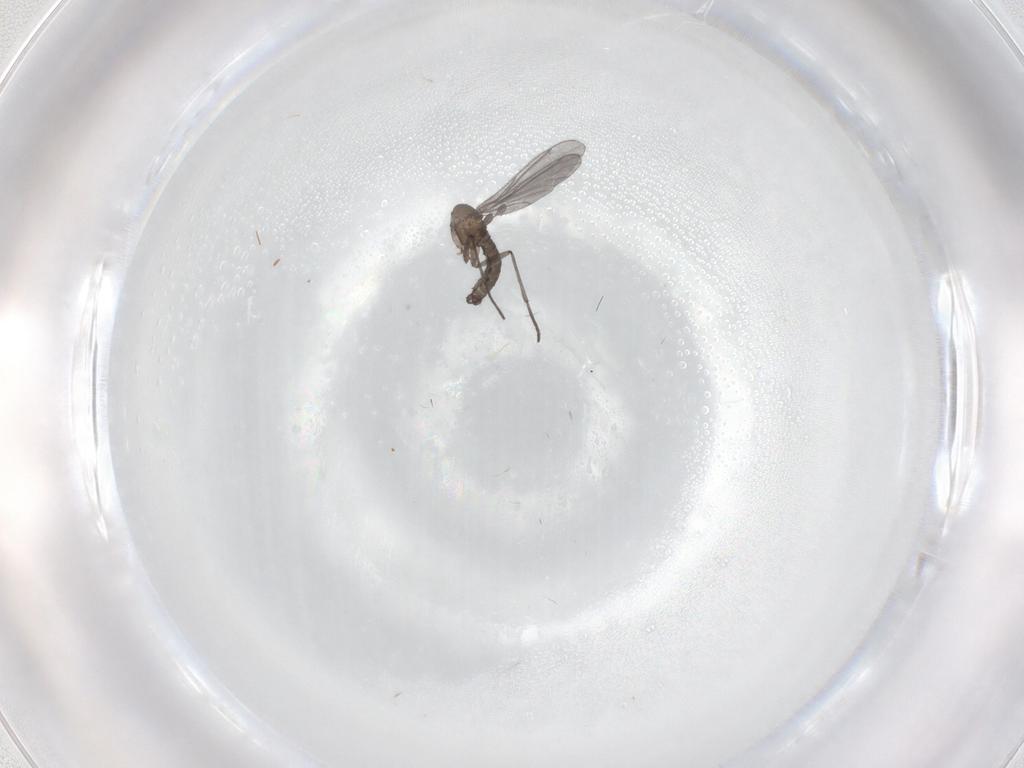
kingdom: Animalia
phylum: Arthropoda
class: Insecta
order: Diptera
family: Sciaridae
